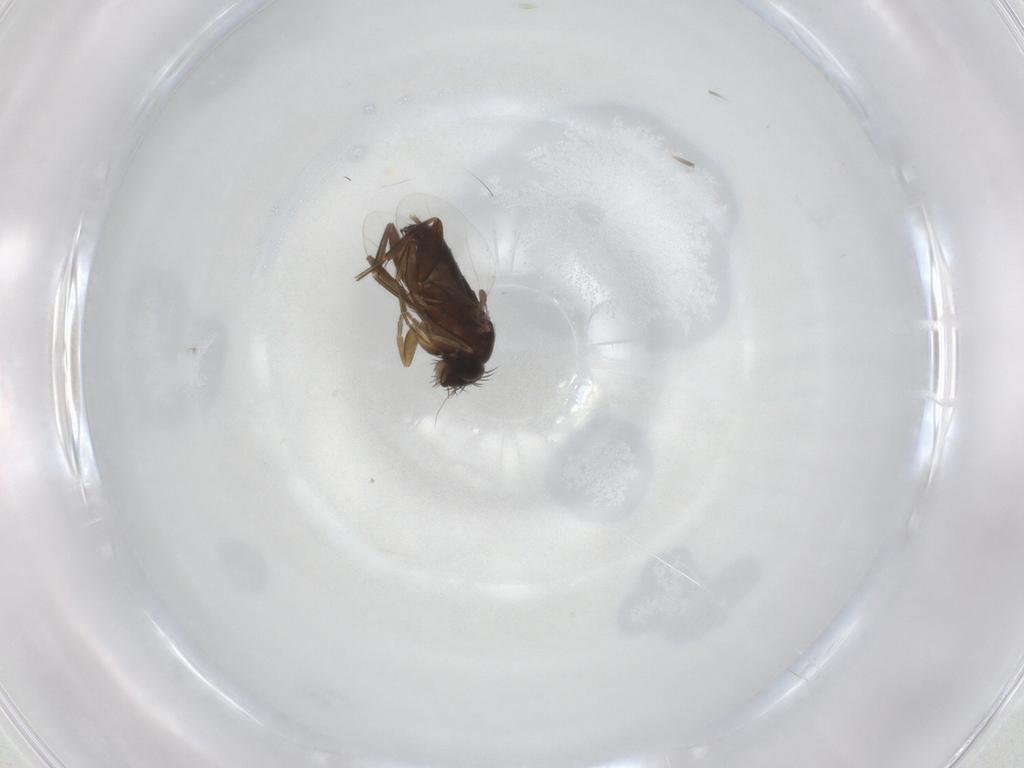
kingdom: Animalia
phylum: Arthropoda
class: Insecta
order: Diptera
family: Phoridae
